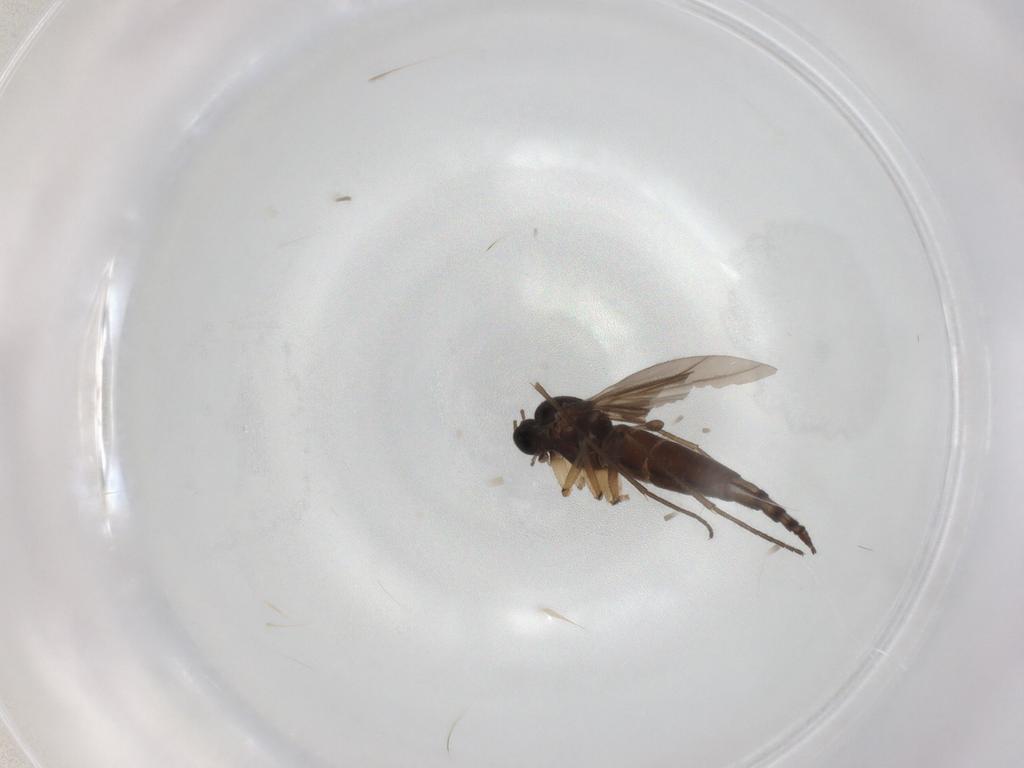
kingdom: Animalia
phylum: Arthropoda
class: Insecta
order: Diptera
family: Sciaridae
